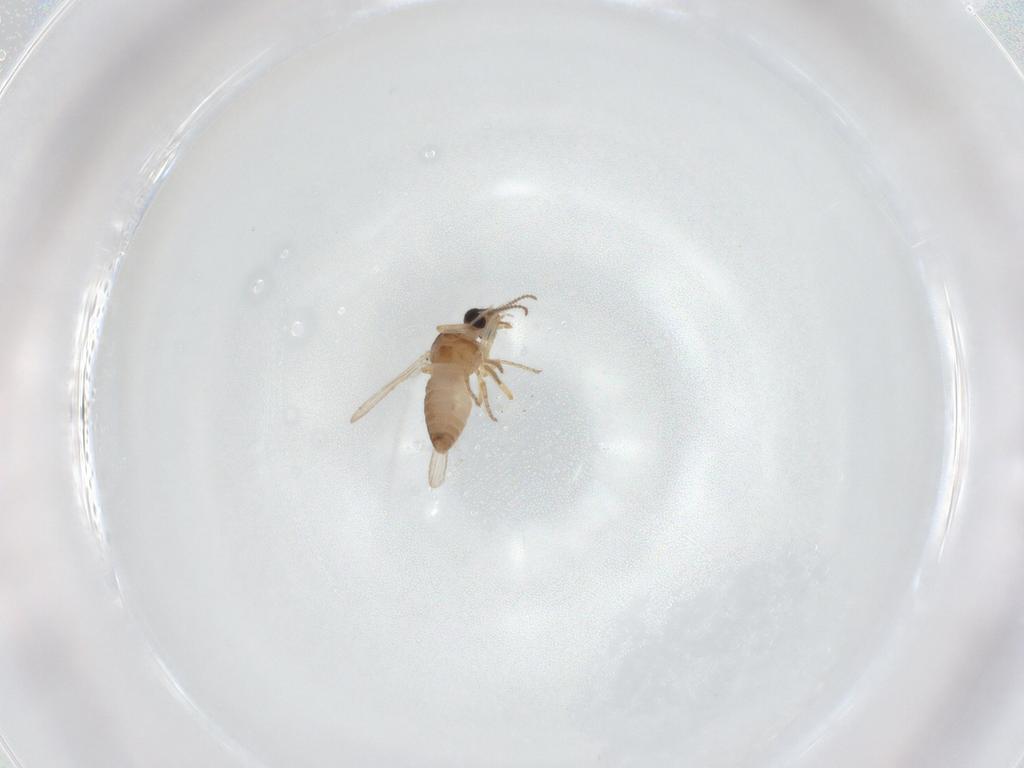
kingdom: Animalia
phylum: Arthropoda
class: Insecta
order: Diptera
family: Ceratopogonidae
